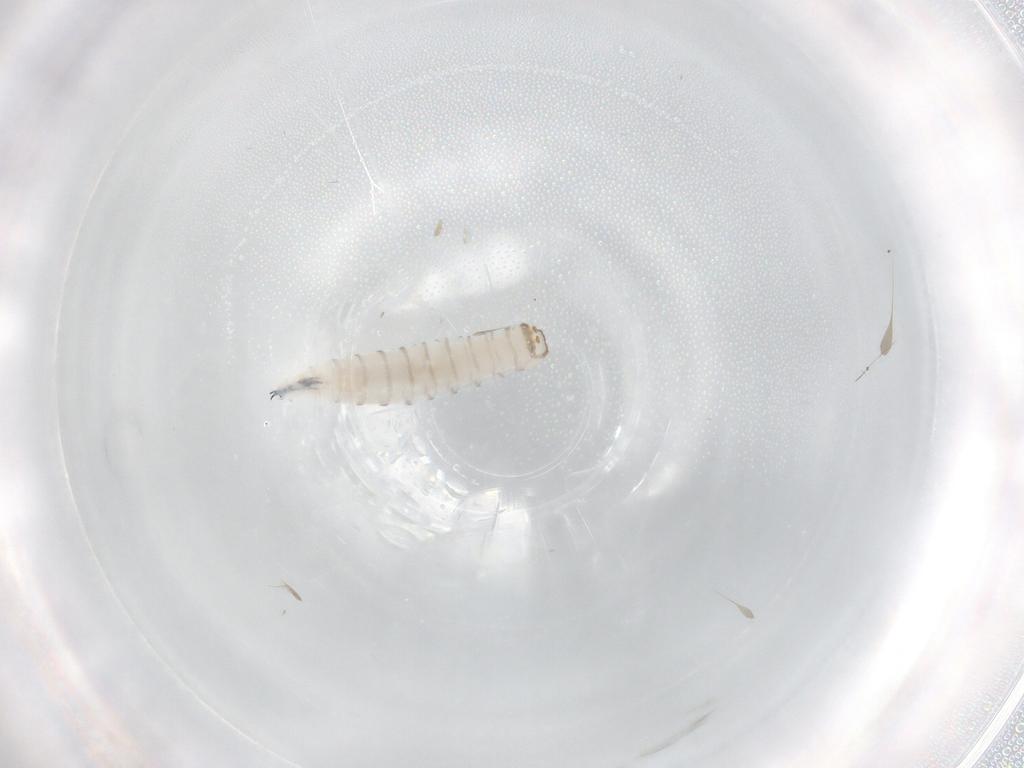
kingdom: Animalia
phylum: Arthropoda
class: Insecta
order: Diptera
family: Sarcophagidae
